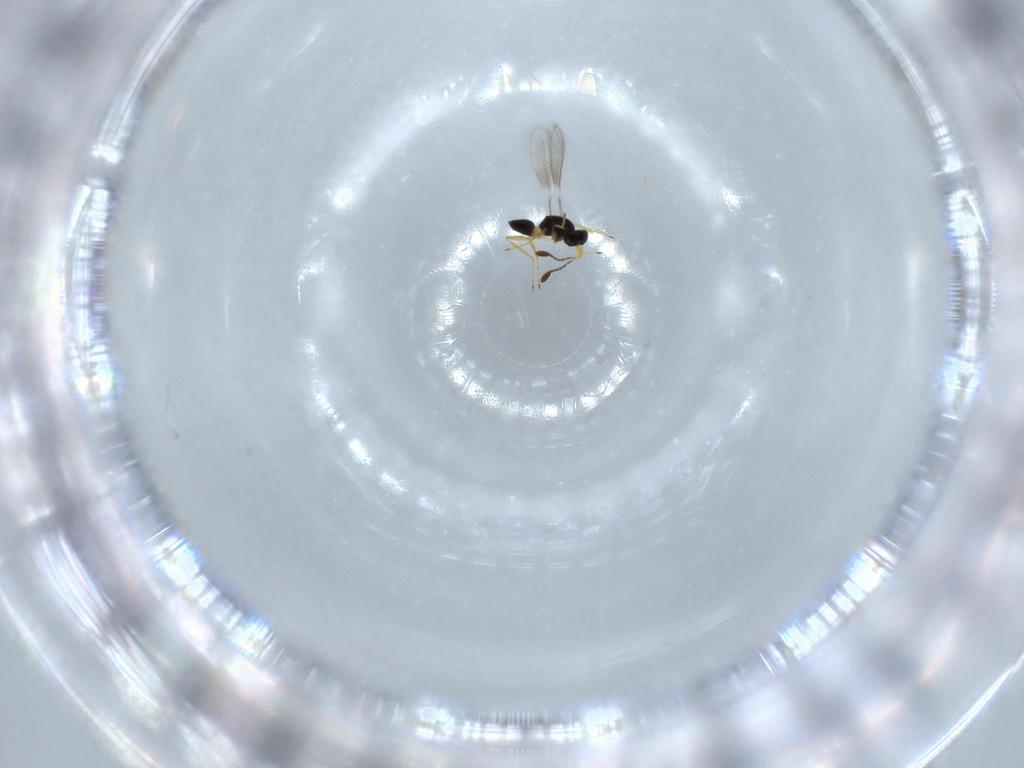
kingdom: Animalia
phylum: Arthropoda
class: Insecta
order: Hymenoptera
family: Mymaridae
